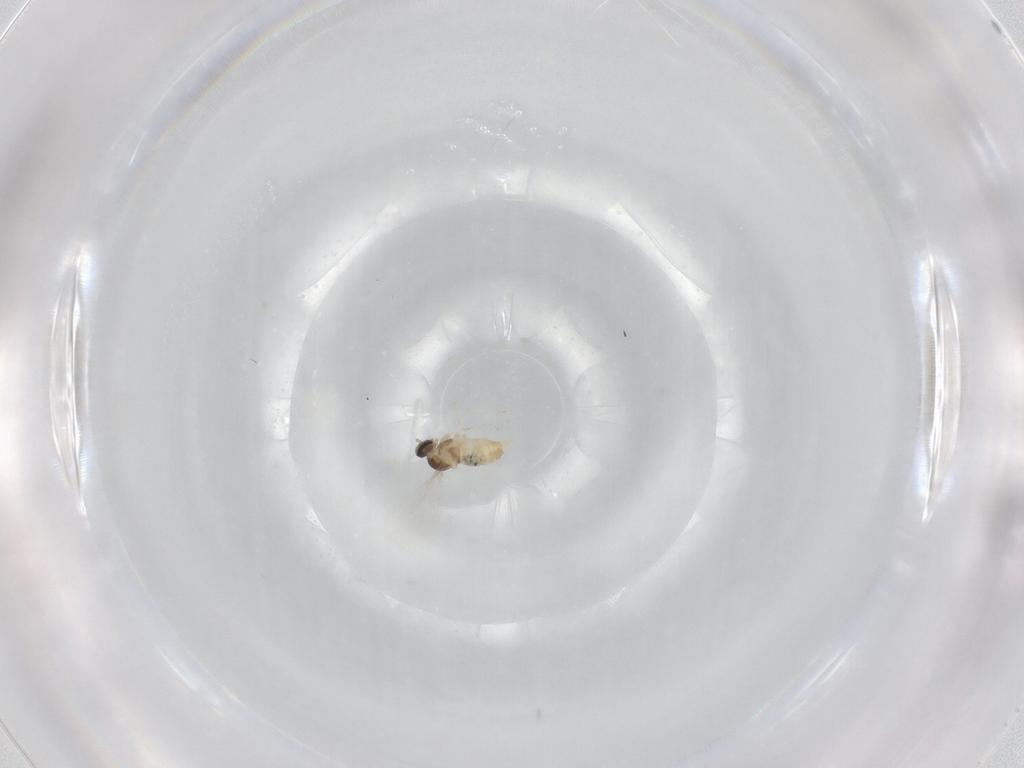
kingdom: Animalia
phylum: Arthropoda
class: Insecta
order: Diptera
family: Cecidomyiidae
